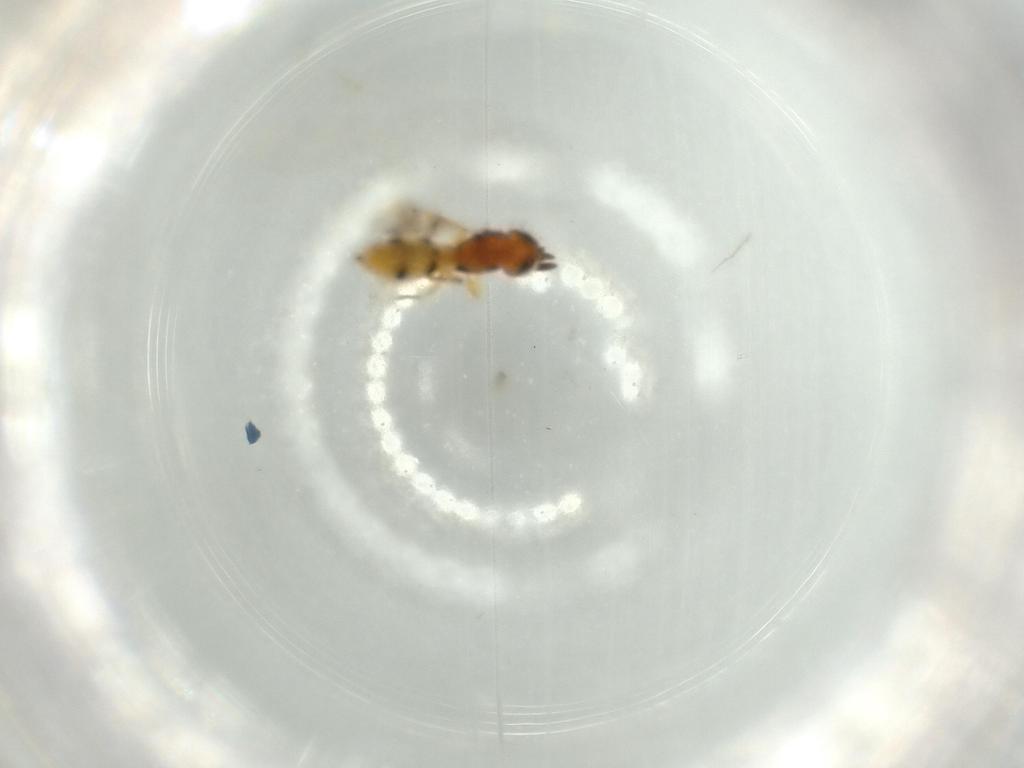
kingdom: Animalia
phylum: Arthropoda
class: Insecta
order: Hymenoptera
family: Scelionidae
